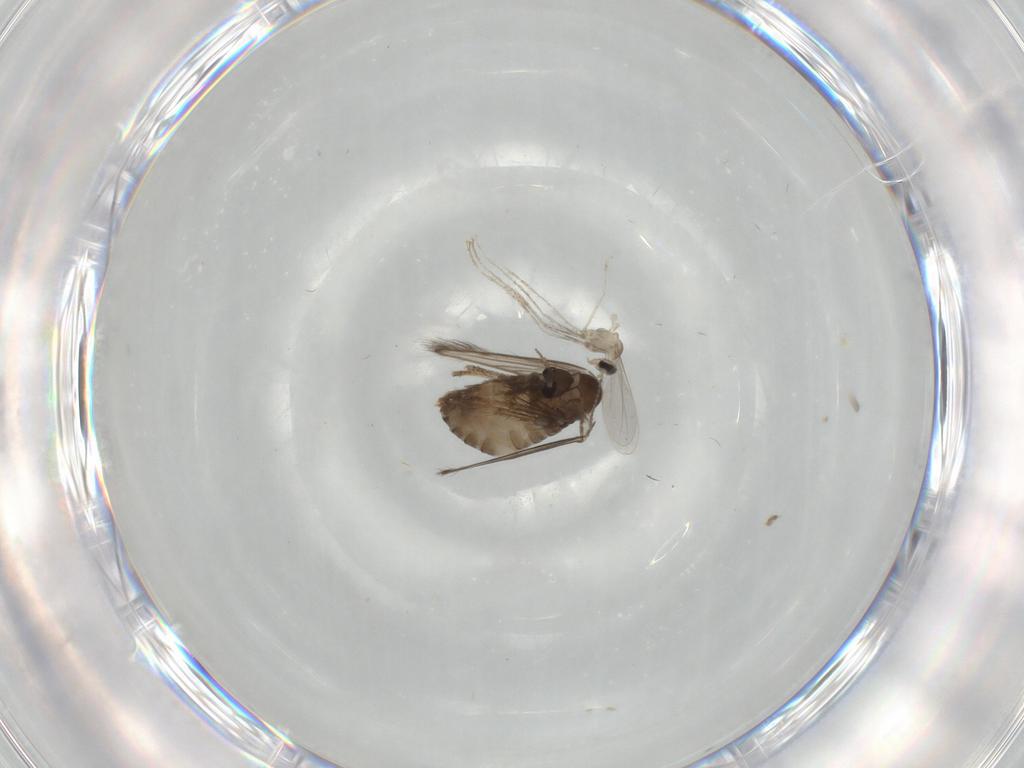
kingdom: Animalia
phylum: Arthropoda
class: Insecta
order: Diptera
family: Psychodidae
